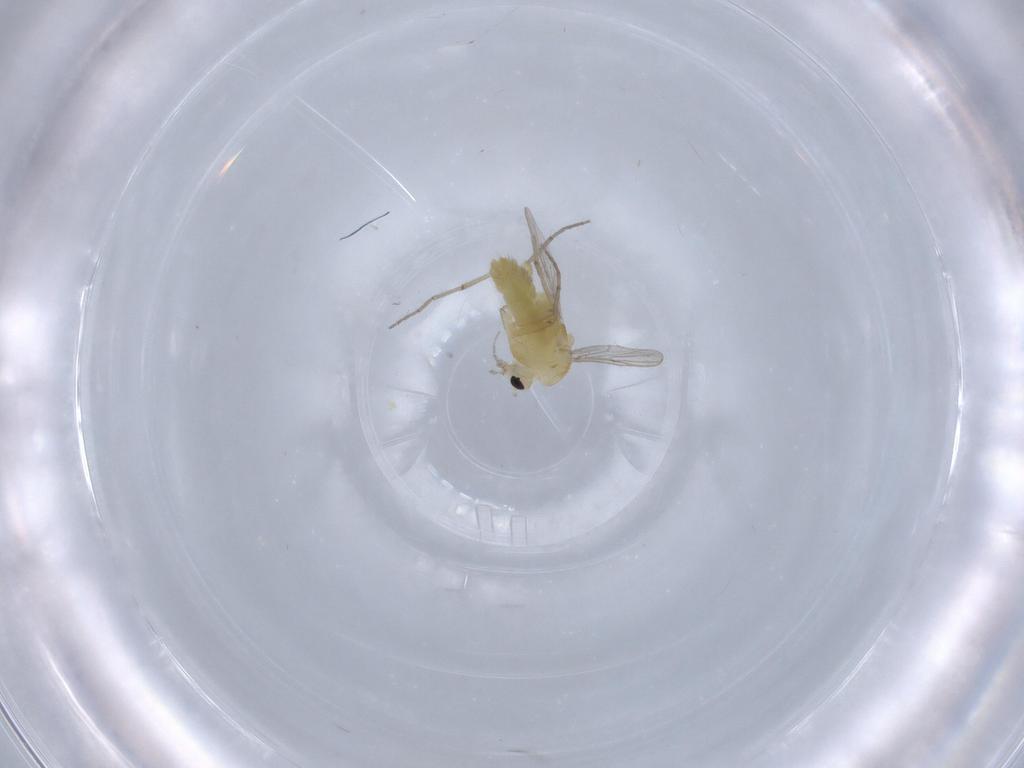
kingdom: Animalia
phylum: Arthropoda
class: Insecta
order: Diptera
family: Chironomidae
